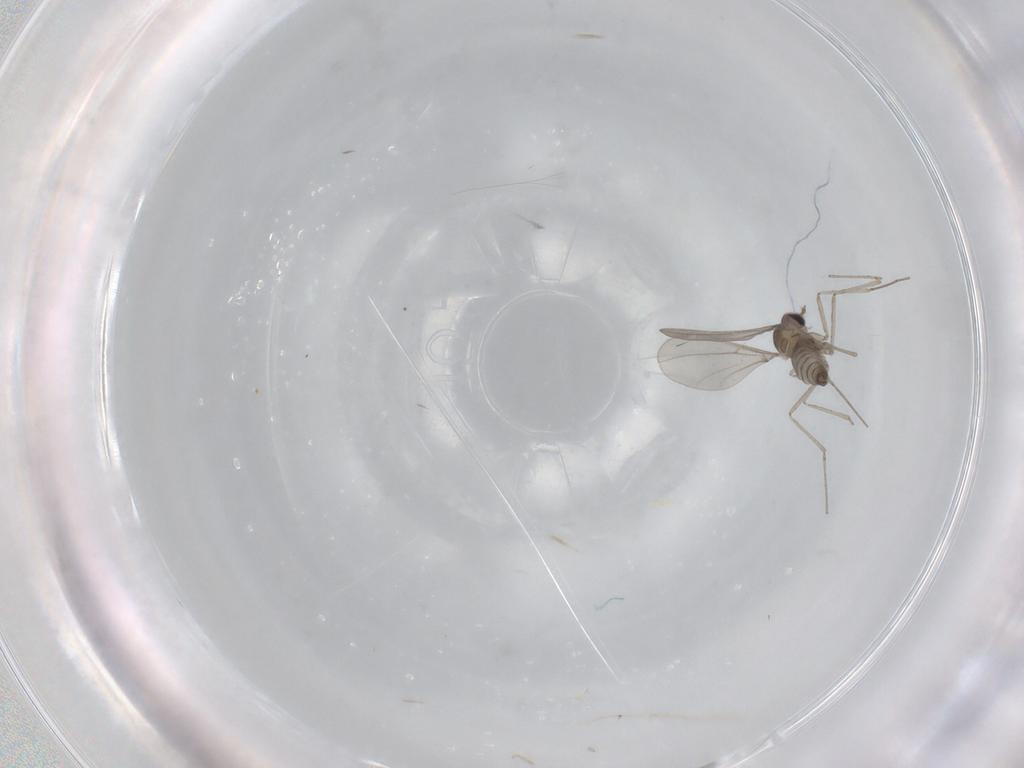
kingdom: Animalia
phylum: Arthropoda
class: Insecta
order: Diptera
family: Cecidomyiidae
